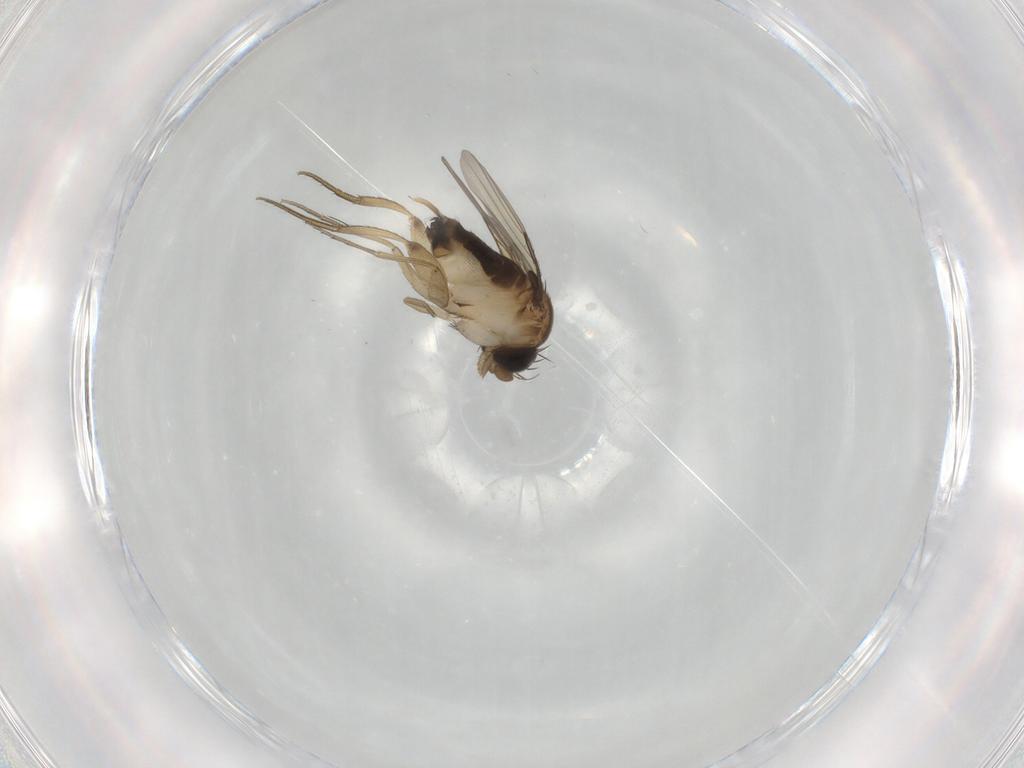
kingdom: Animalia
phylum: Arthropoda
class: Insecta
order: Diptera
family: Phoridae
